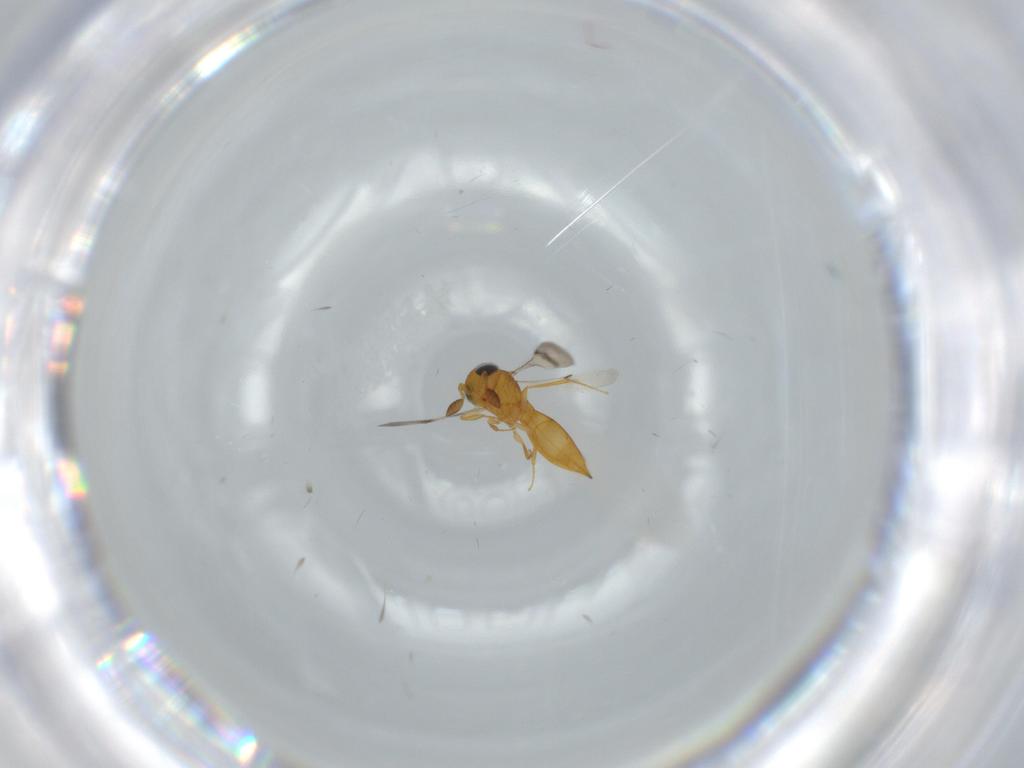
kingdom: Animalia
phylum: Arthropoda
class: Insecta
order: Hymenoptera
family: Scelionidae
